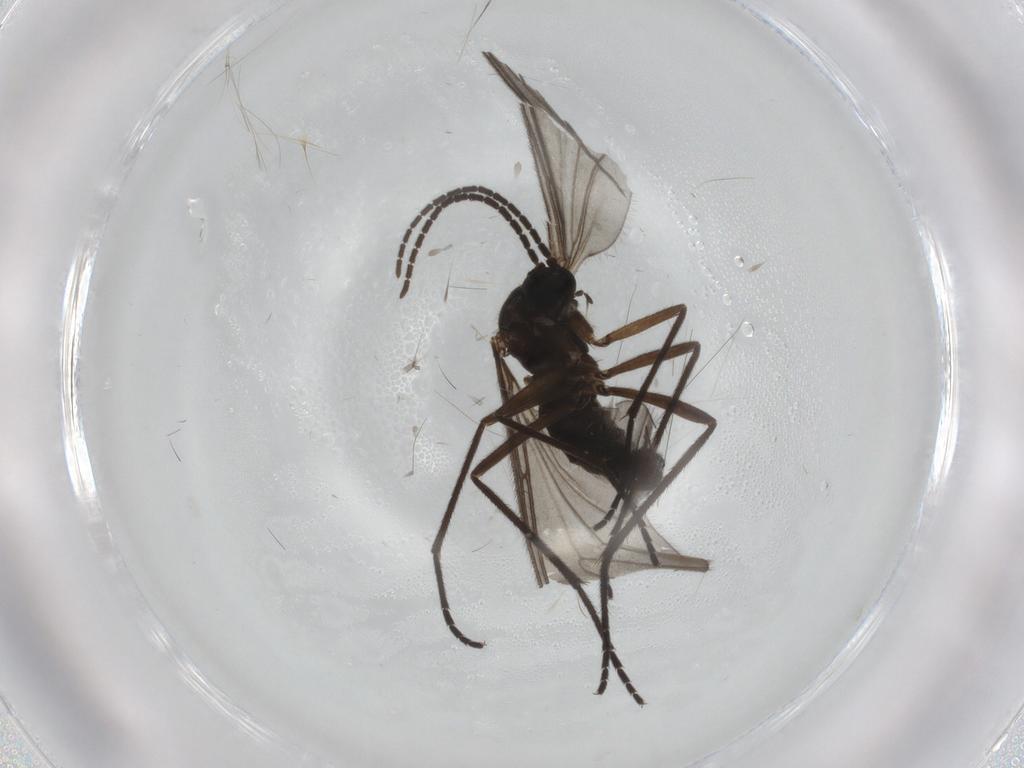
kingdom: Animalia
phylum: Arthropoda
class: Insecta
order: Diptera
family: Sciaridae
